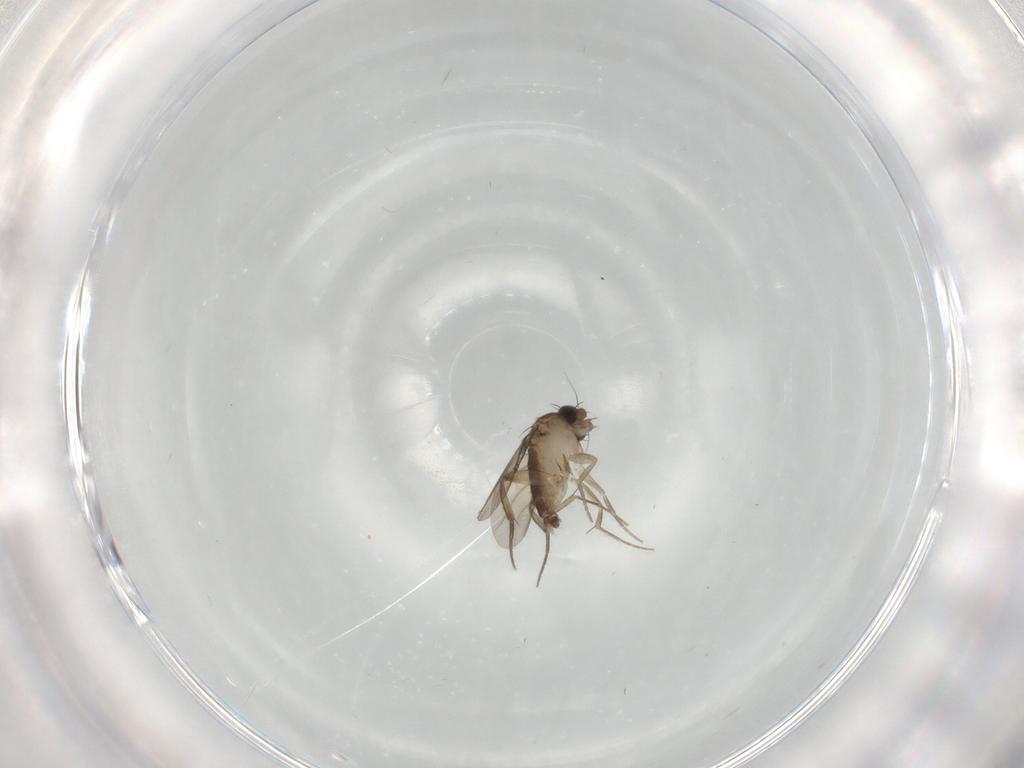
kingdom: Animalia
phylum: Arthropoda
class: Insecta
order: Diptera
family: Phoridae
